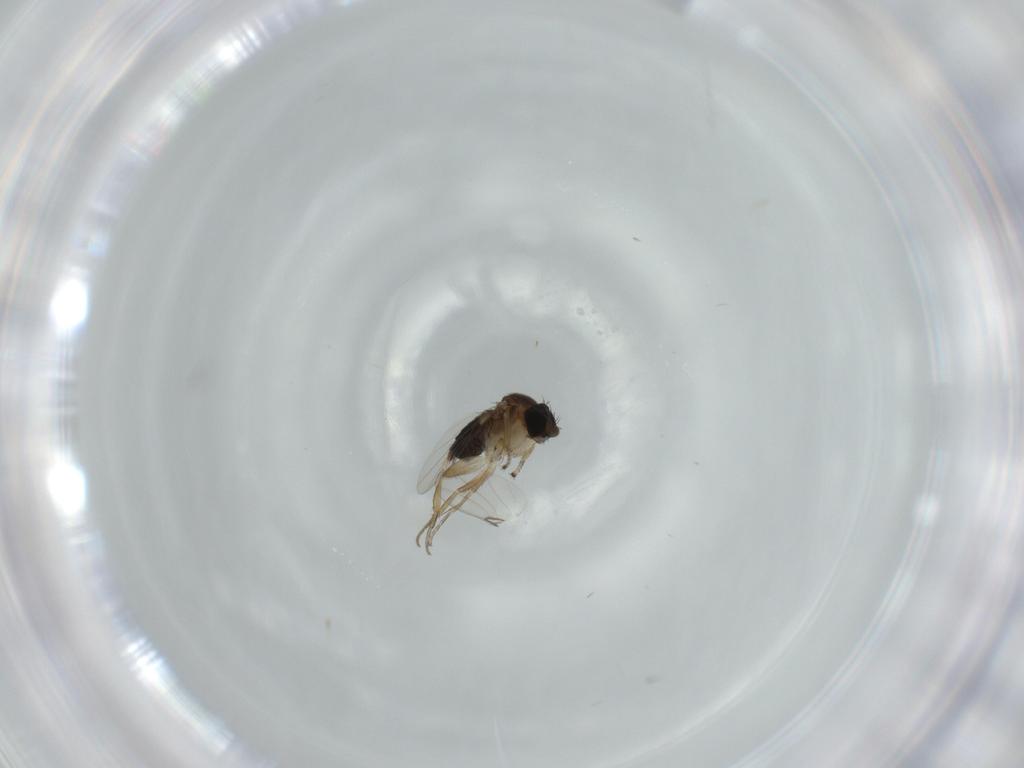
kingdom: Animalia
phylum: Arthropoda
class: Insecta
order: Diptera
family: Phoridae
